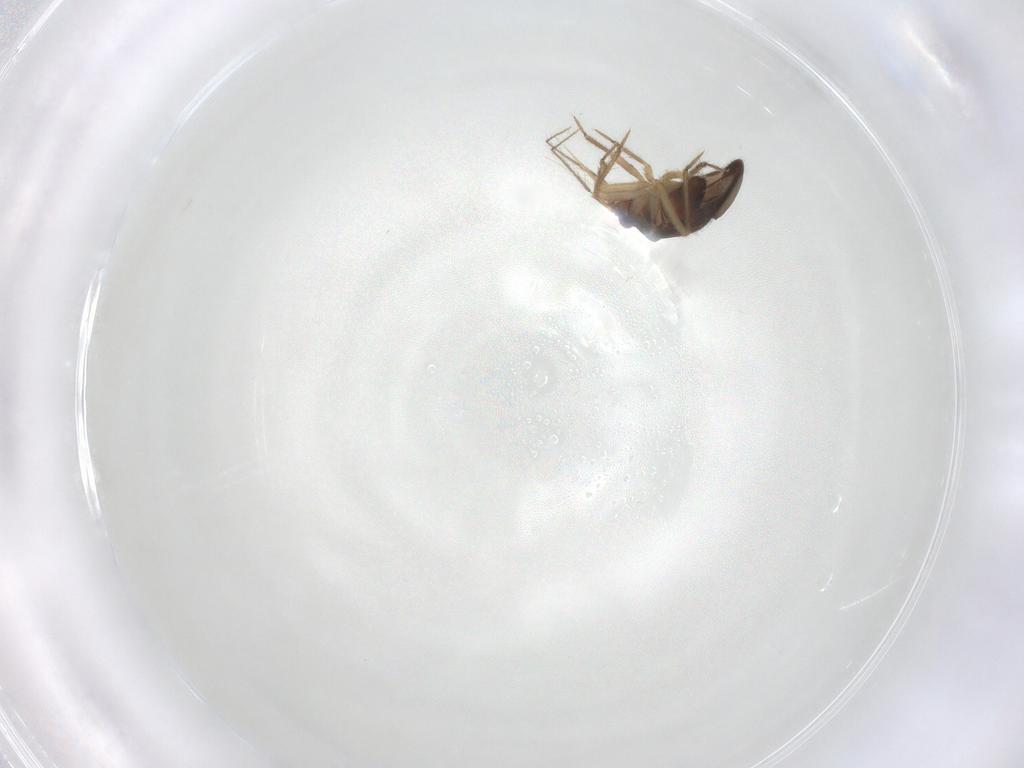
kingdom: Animalia
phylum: Arthropoda
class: Insecta
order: Hemiptera
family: Ceratocombidae
